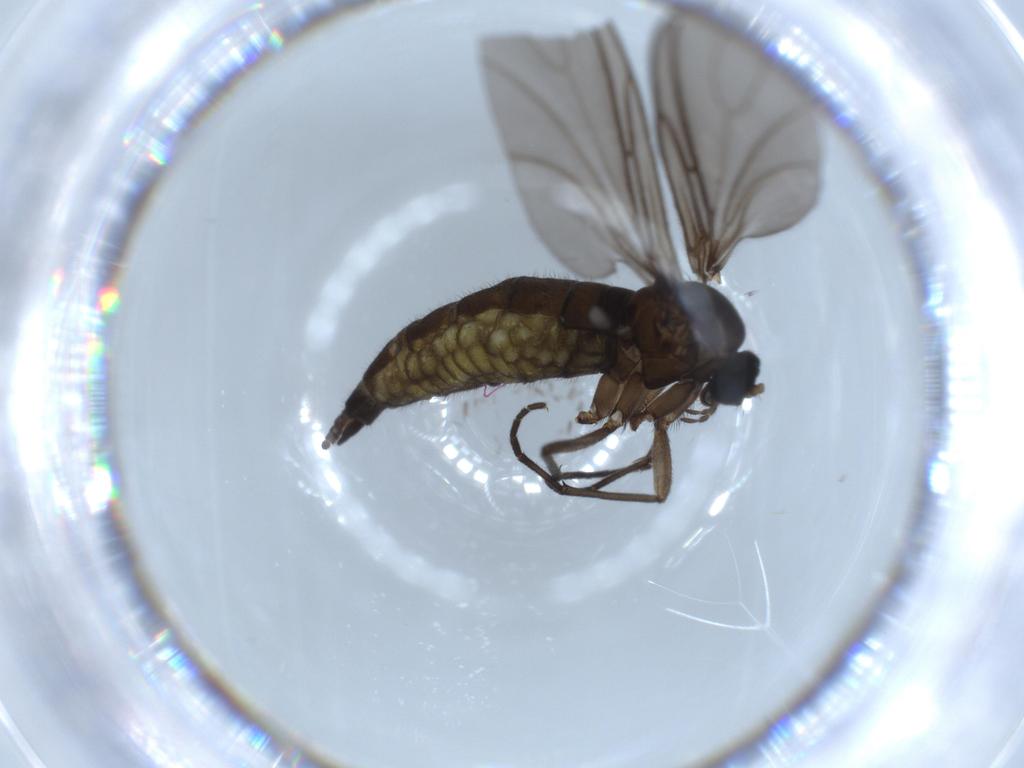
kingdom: Animalia
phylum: Arthropoda
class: Insecta
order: Diptera
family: Sciaridae
